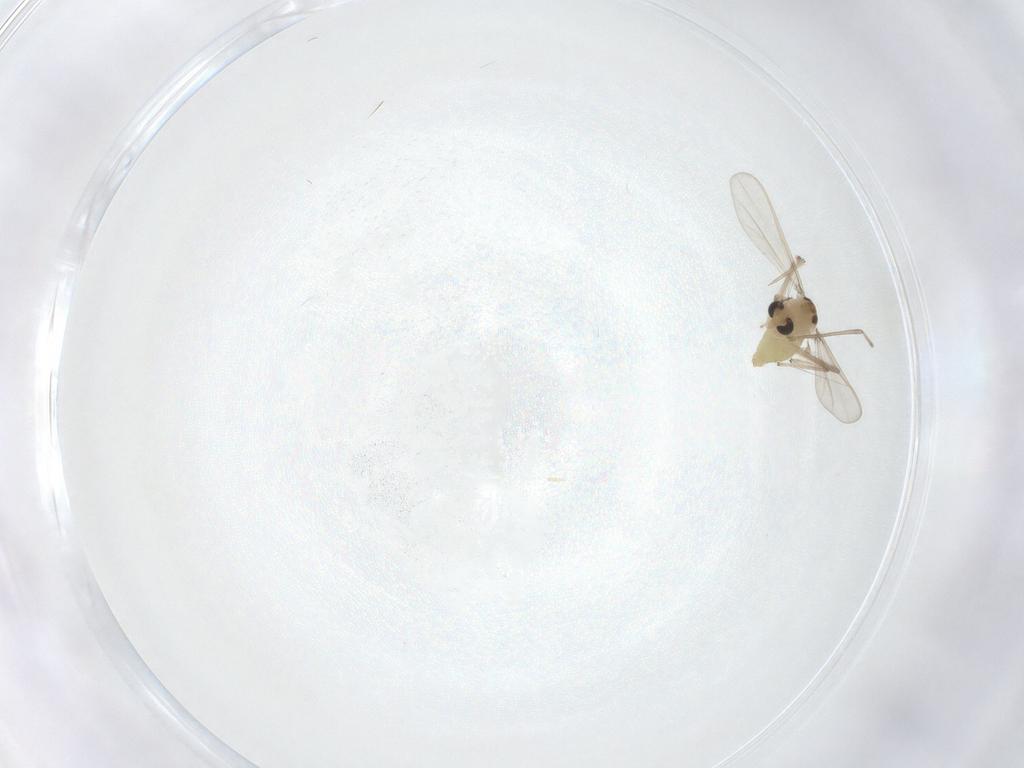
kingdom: Animalia
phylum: Arthropoda
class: Insecta
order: Diptera
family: Chironomidae
